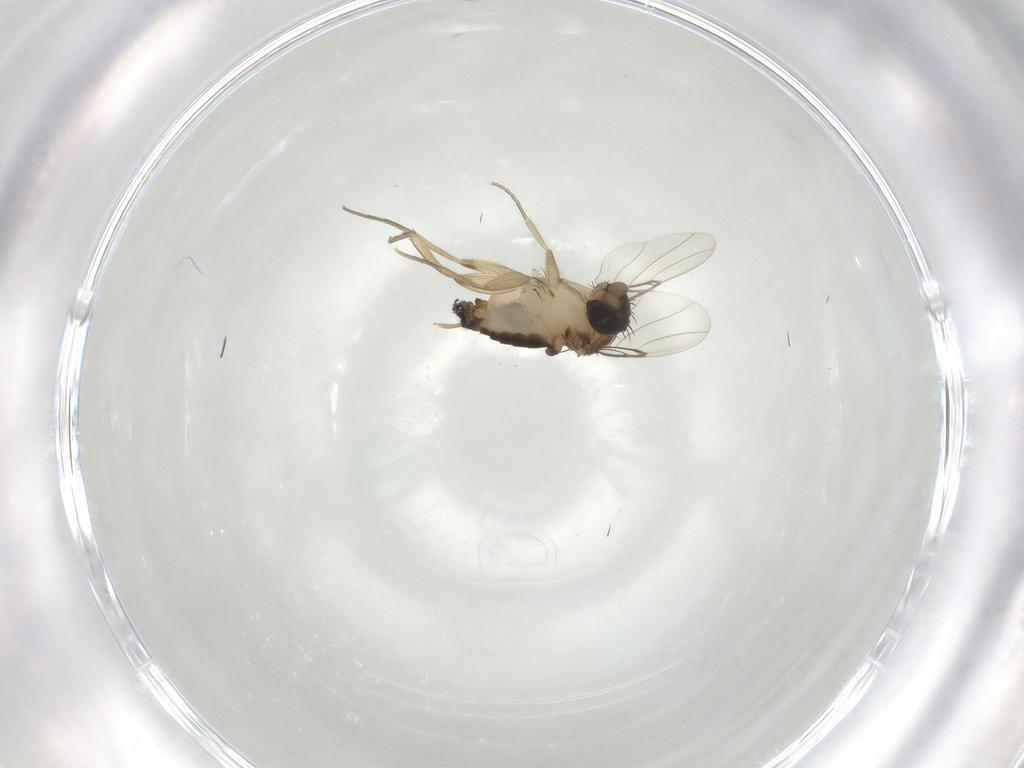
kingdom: Animalia
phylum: Arthropoda
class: Insecta
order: Diptera
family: Phoridae
